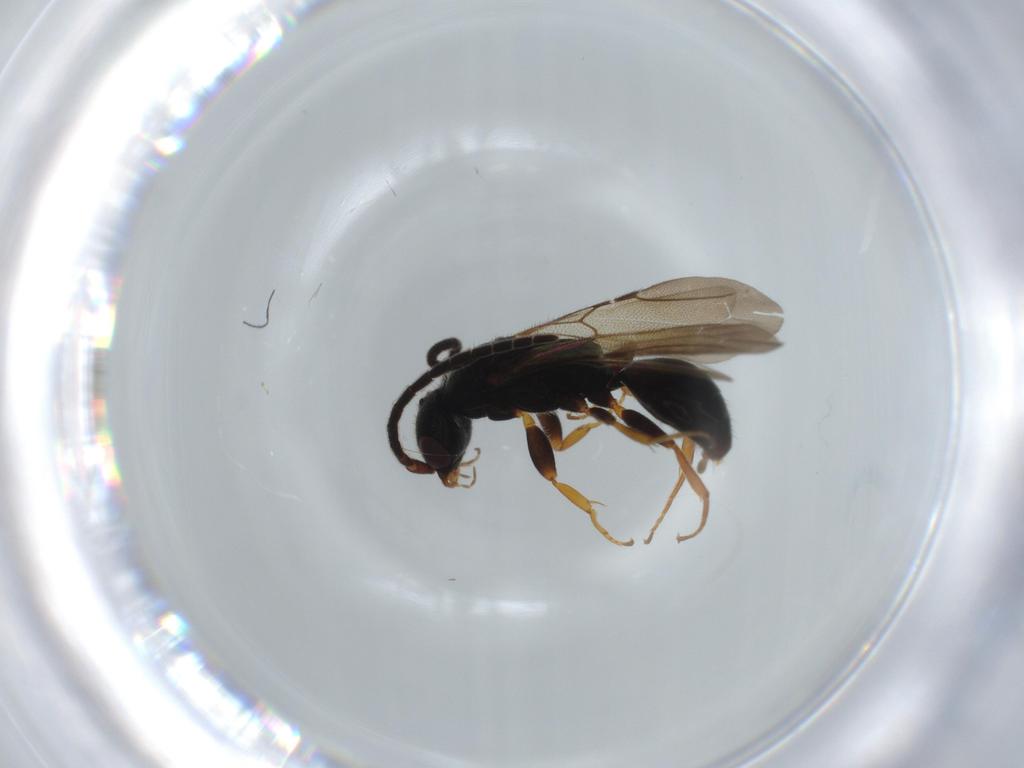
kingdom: Animalia
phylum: Arthropoda
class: Insecta
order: Hymenoptera
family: Bethylidae
